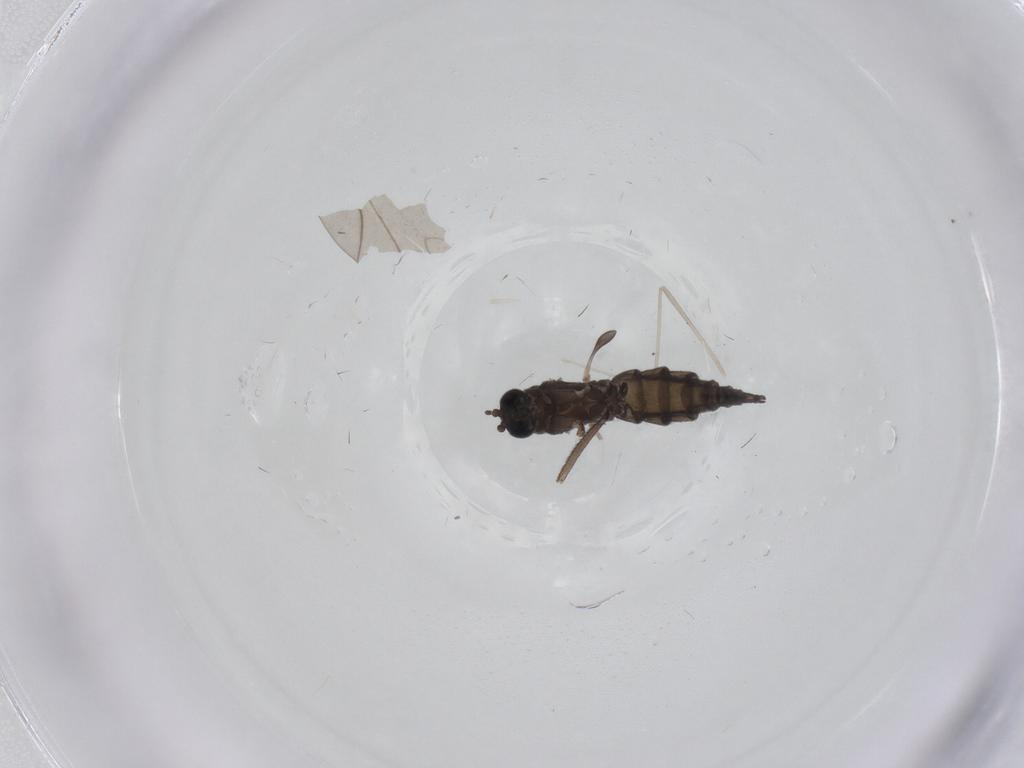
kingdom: Animalia
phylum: Arthropoda
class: Insecta
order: Diptera
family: Sciaridae
